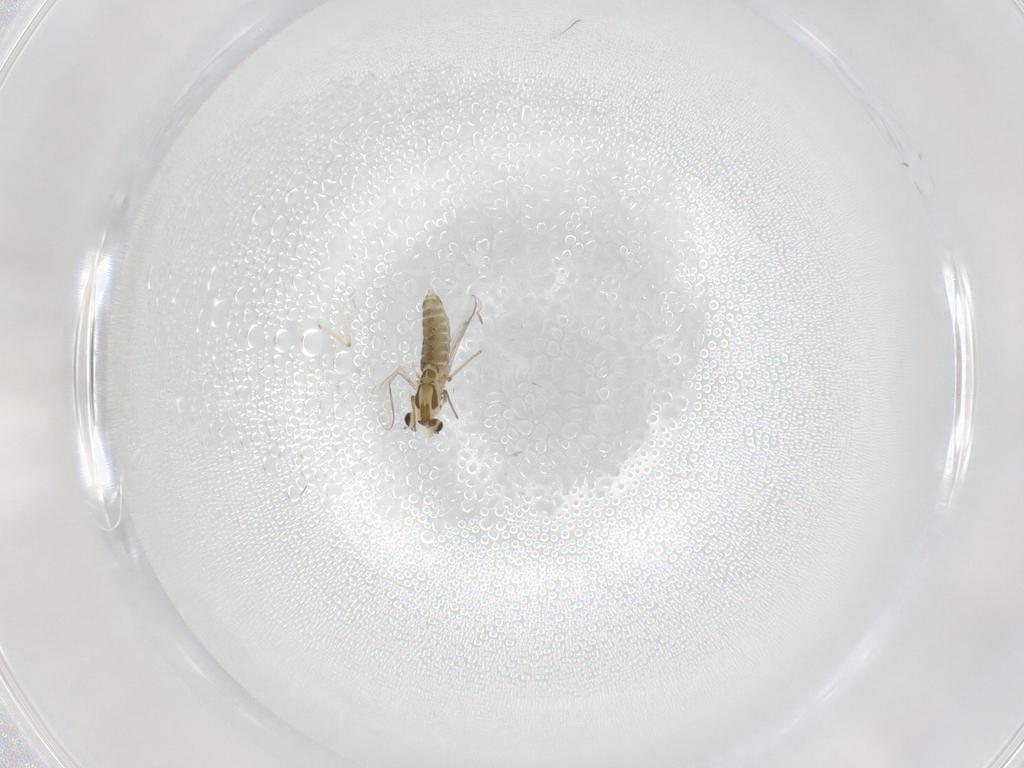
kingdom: Animalia
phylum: Arthropoda
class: Insecta
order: Diptera
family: Chironomidae
